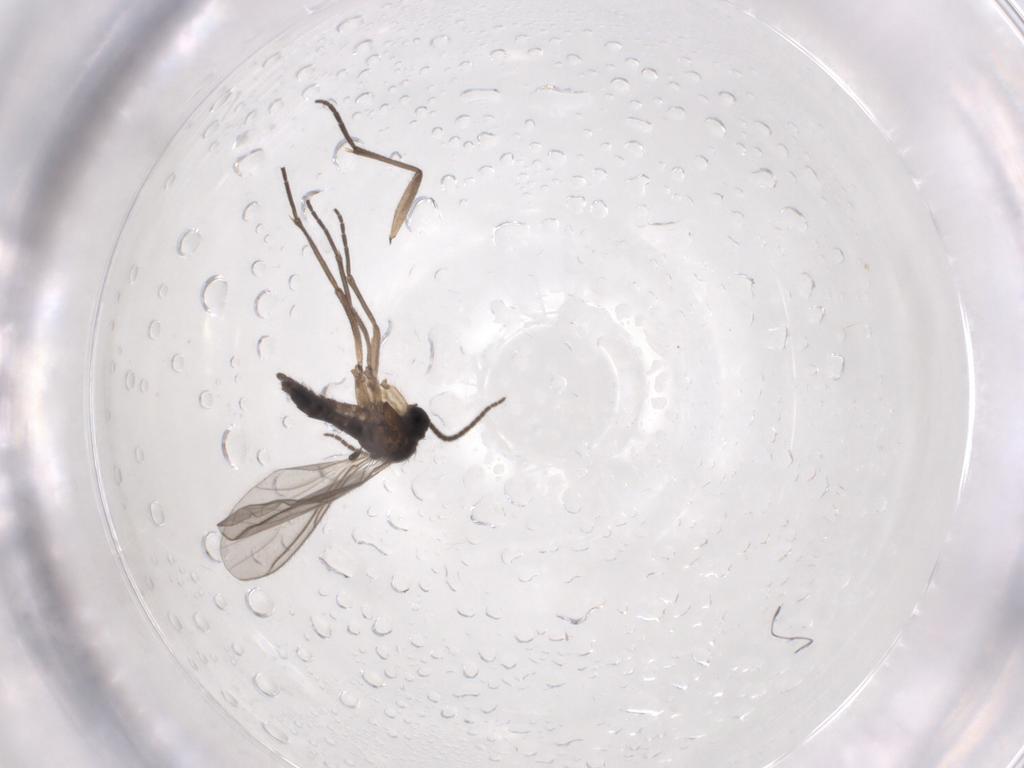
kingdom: Animalia
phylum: Arthropoda
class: Insecta
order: Diptera
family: Sciaridae
